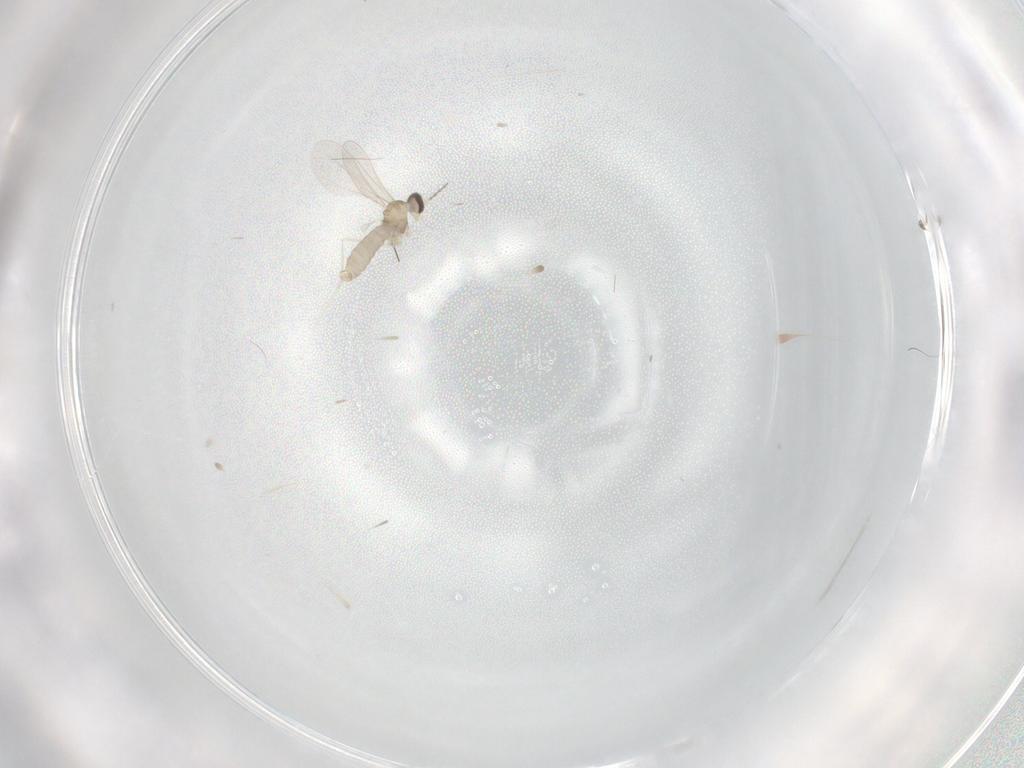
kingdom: Animalia
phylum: Arthropoda
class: Insecta
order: Diptera
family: Cecidomyiidae
